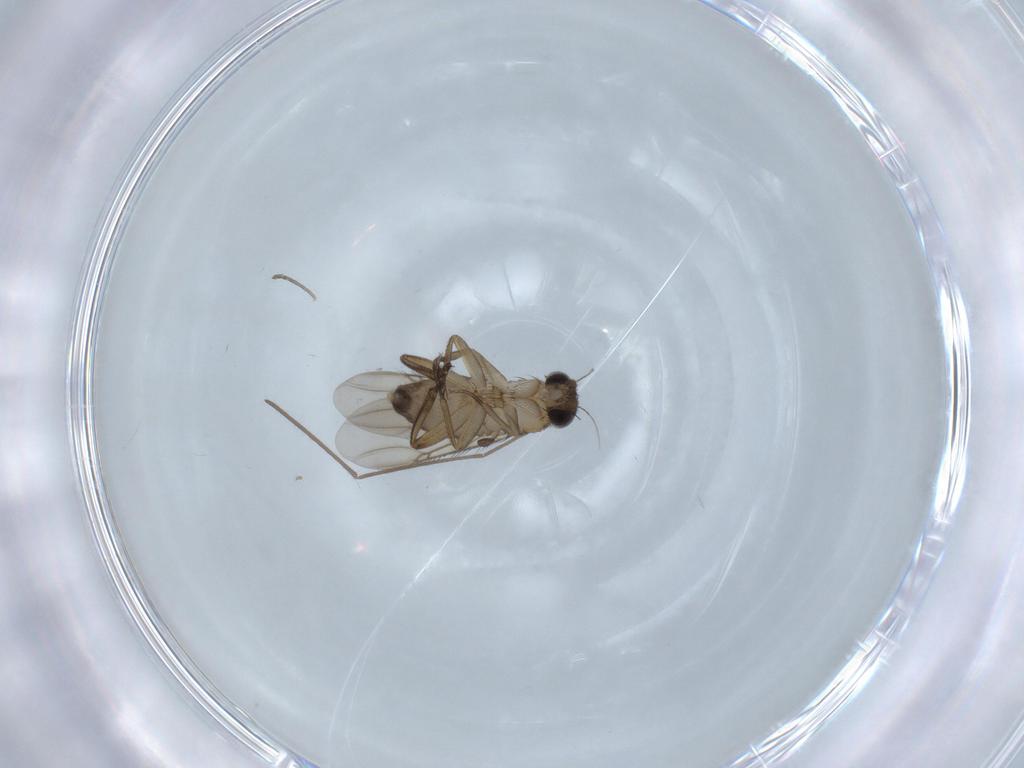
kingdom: Animalia
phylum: Arthropoda
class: Insecta
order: Diptera
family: Phoridae
